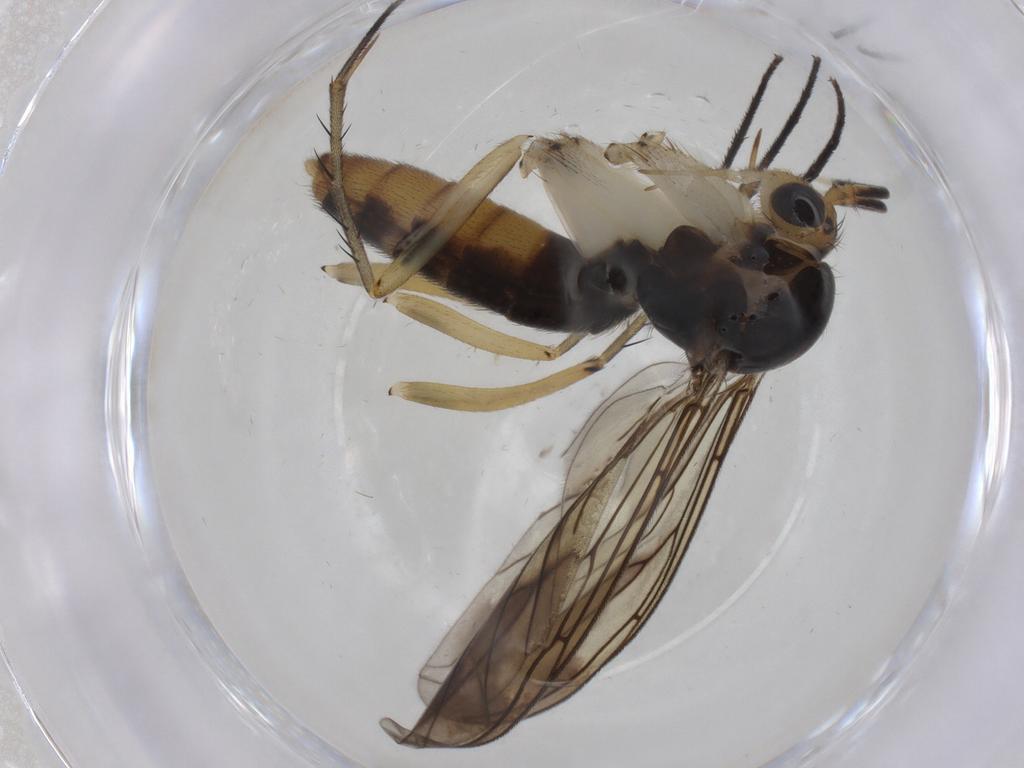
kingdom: Animalia
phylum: Arthropoda
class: Insecta
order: Diptera
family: Mycetophilidae
